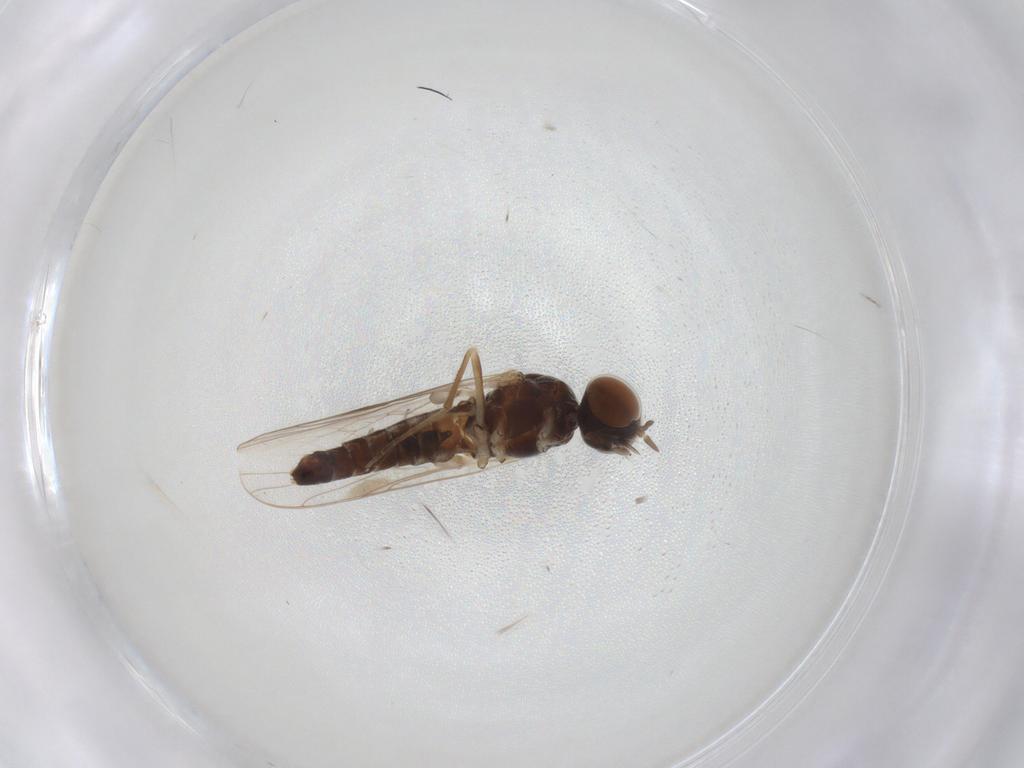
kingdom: Animalia
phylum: Arthropoda
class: Insecta
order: Diptera
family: Scenopinidae
